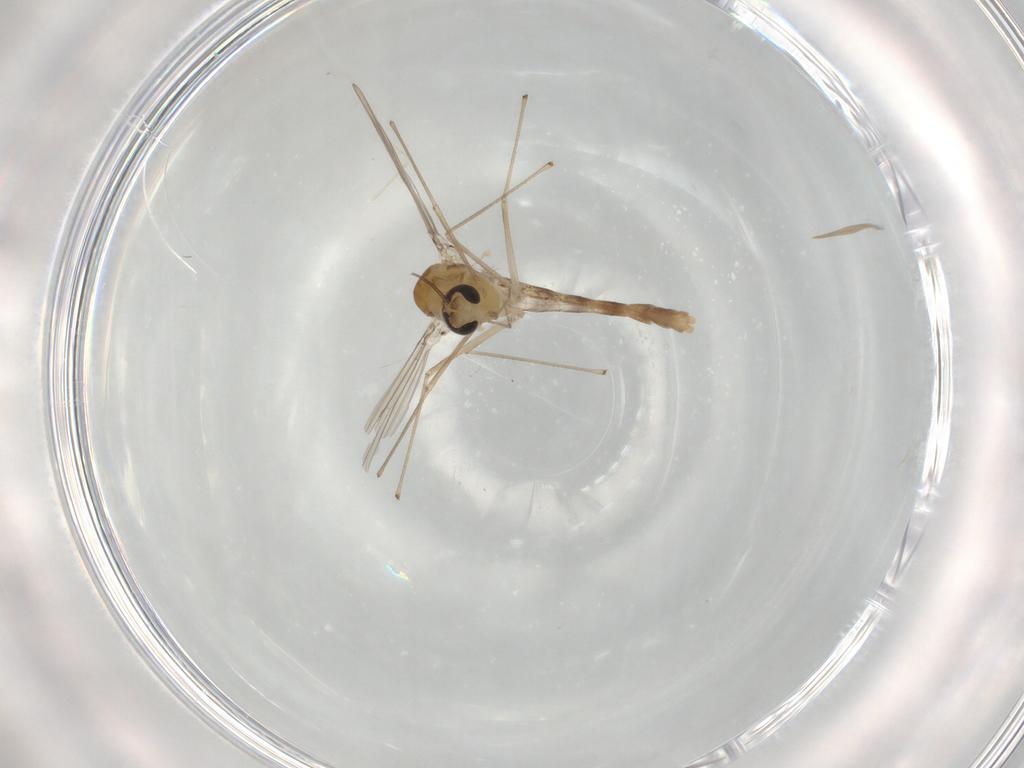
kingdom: Animalia
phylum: Arthropoda
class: Insecta
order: Diptera
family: Chironomidae
